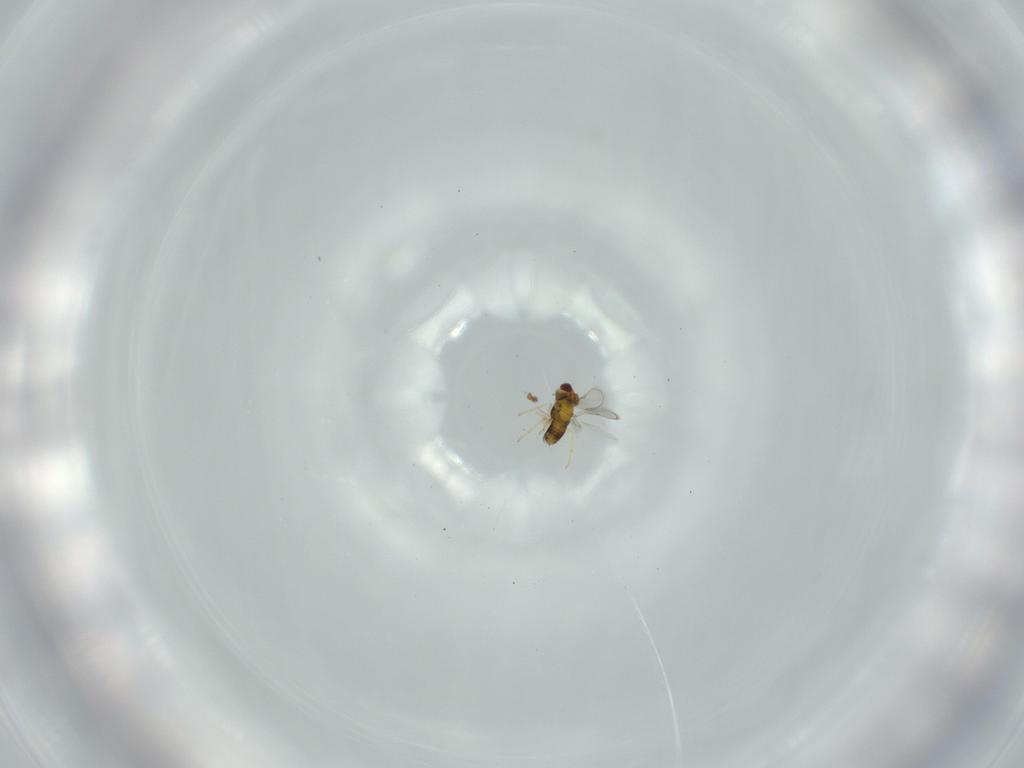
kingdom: Animalia
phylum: Arthropoda
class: Insecta
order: Hymenoptera
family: Aphelinidae
